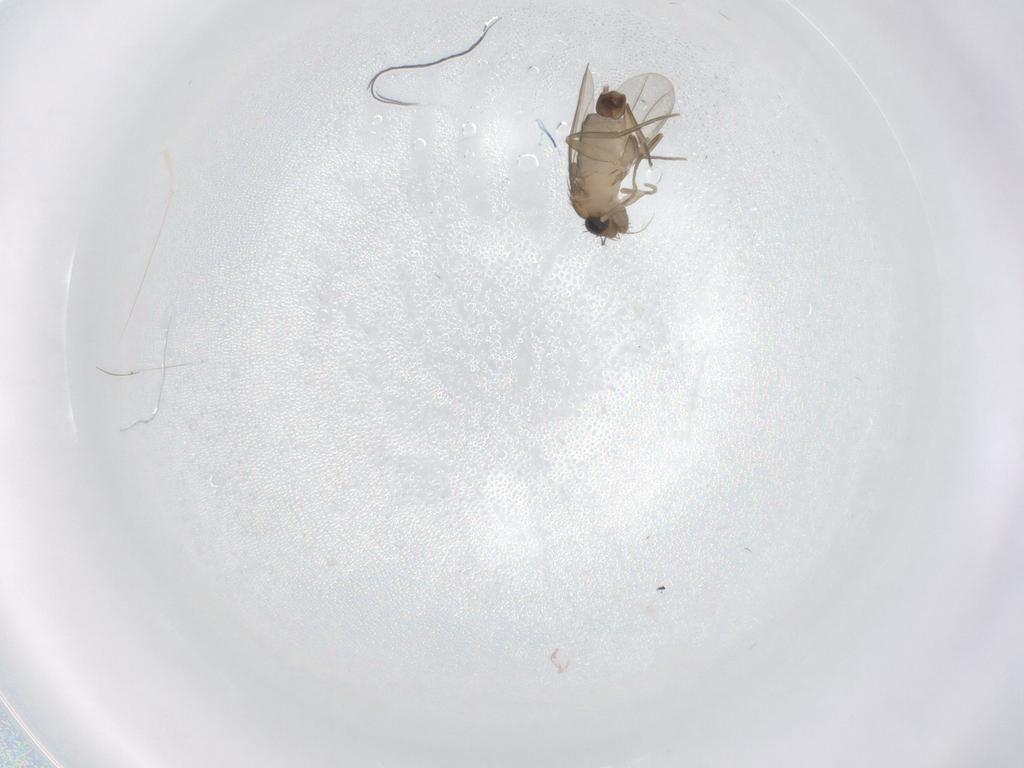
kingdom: Animalia
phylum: Arthropoda
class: Insecta
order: Diptera
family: Phoridae
